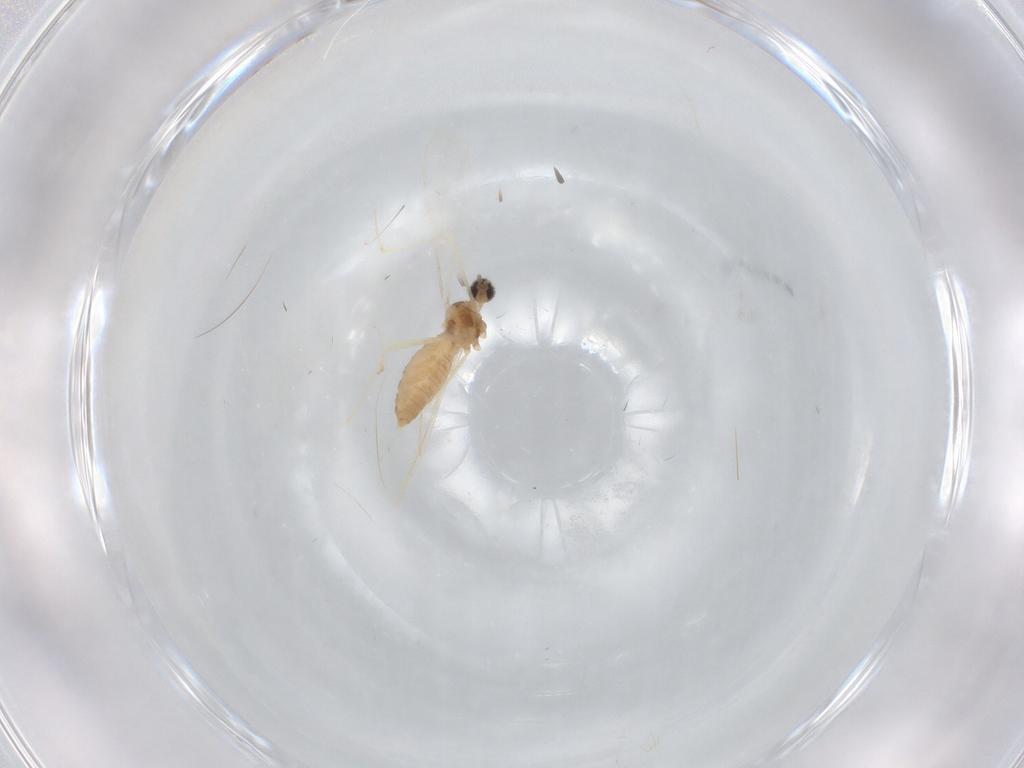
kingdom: Animalia
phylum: Arthropoda
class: Insecta
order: Diptera
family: Cecidomyiidae
